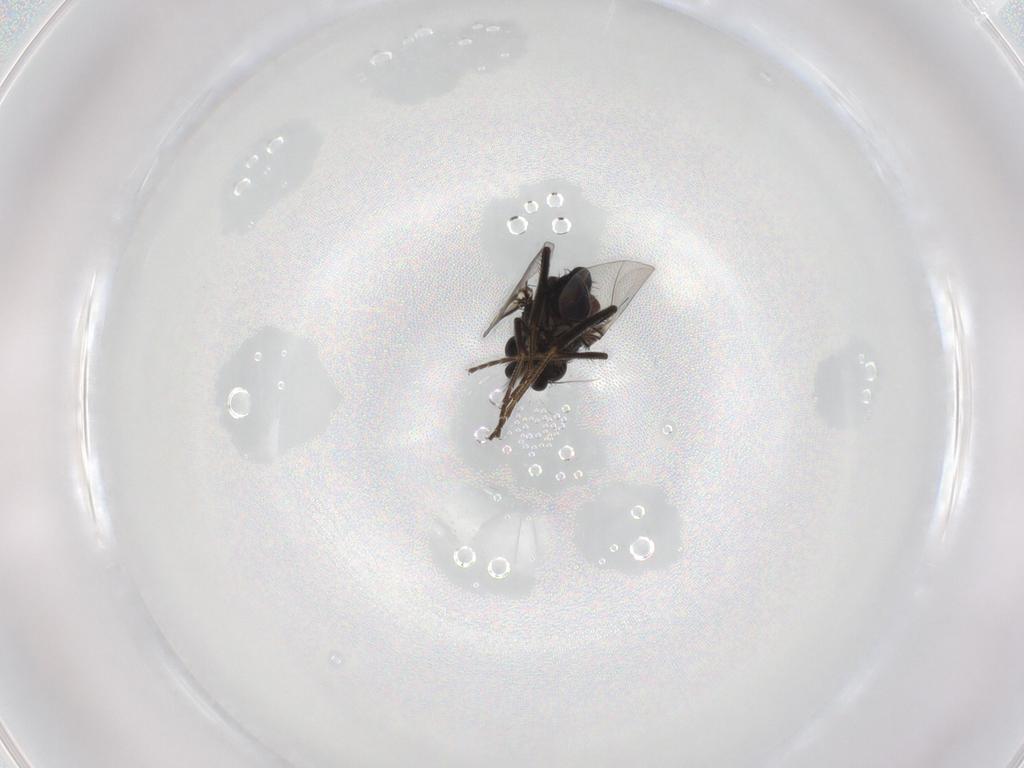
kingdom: Animalia
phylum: Arthropoda
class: Insecta
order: Diptera
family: Phoridae
